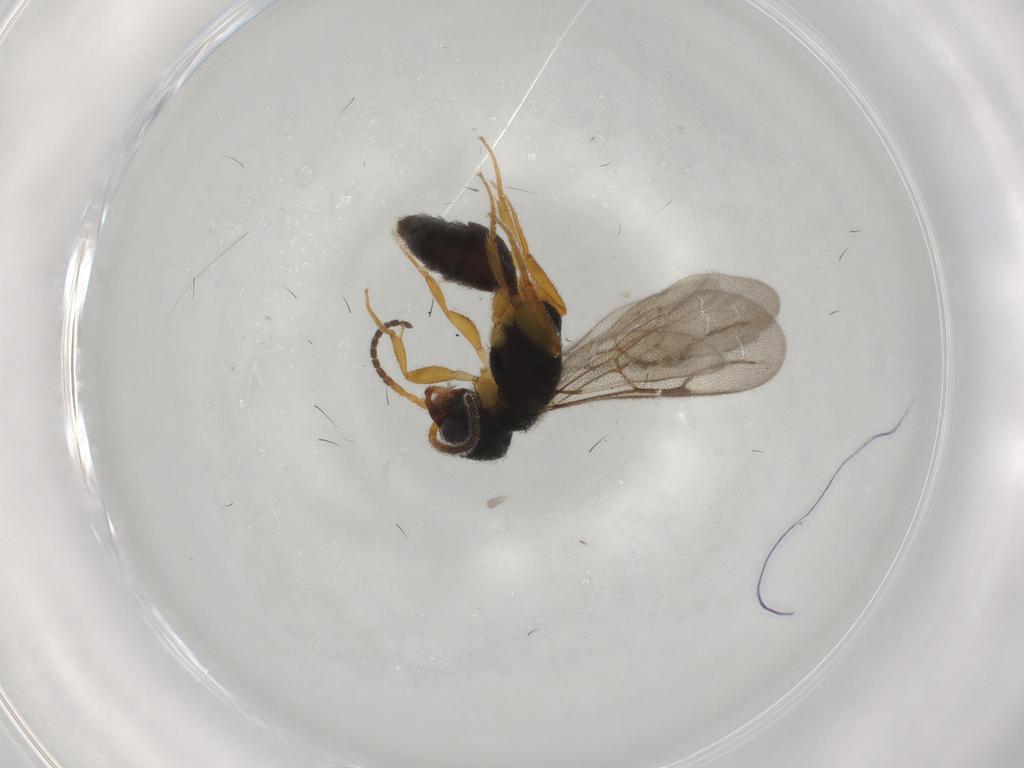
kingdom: Animalia
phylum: Arthropoda
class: Insecta
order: Hymenoptera
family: Bethylidae
